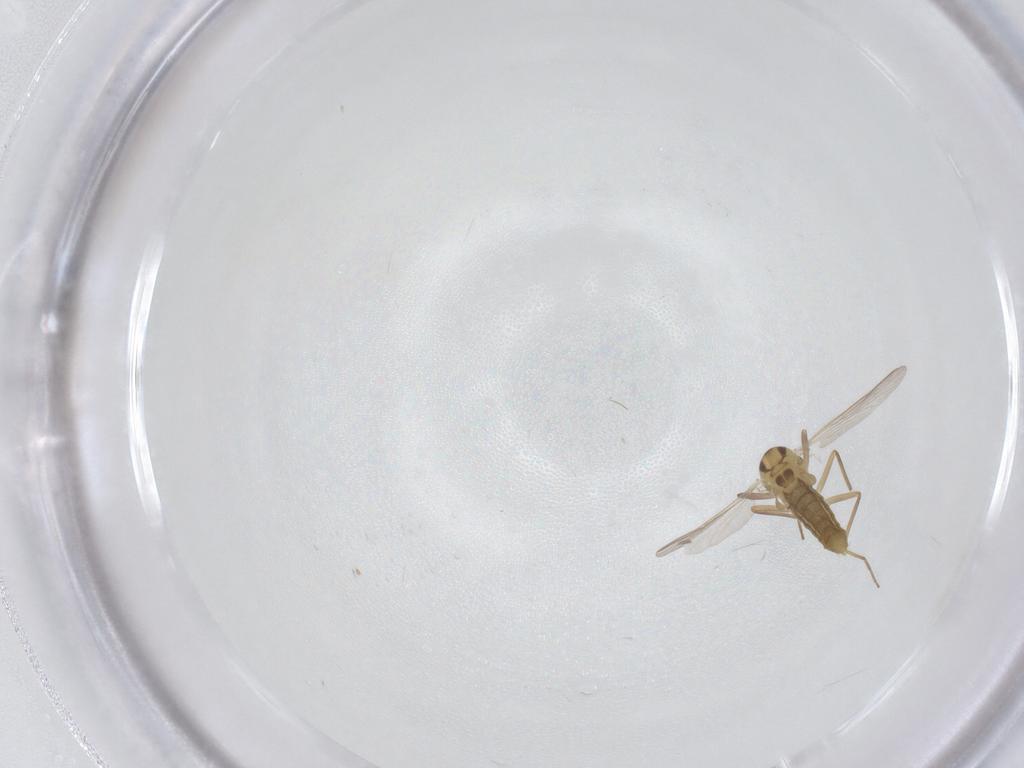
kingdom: Animalia
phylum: Arthropoda
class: Insecta
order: Diptera
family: Chironomidae
